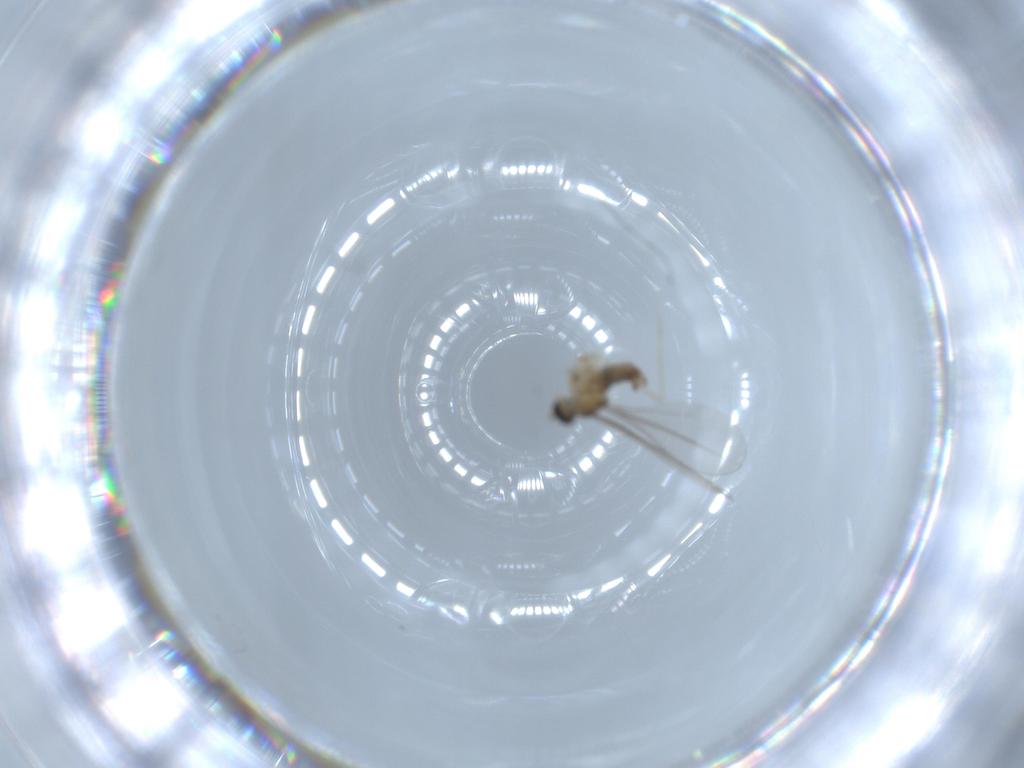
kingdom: Animalia
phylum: Arthropoda
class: Insecta
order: Diptera
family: Cecidomyiidae
